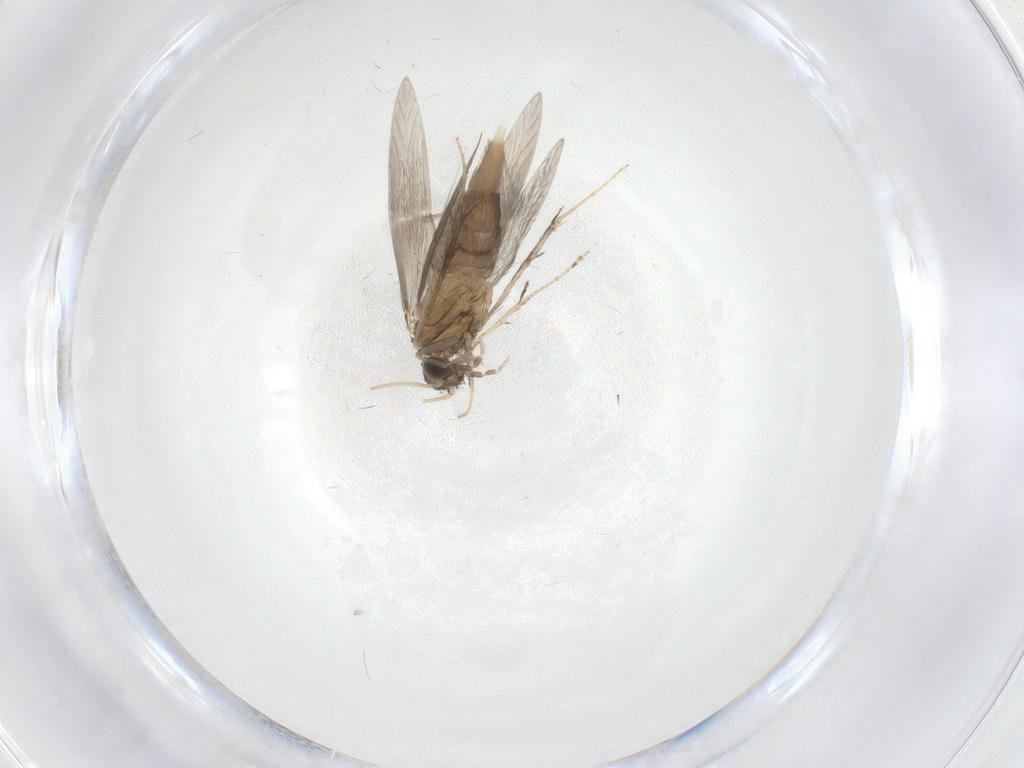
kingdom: Animalia
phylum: Arthropoda
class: Insecta
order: Trichoptera
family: Hydroptilidae
